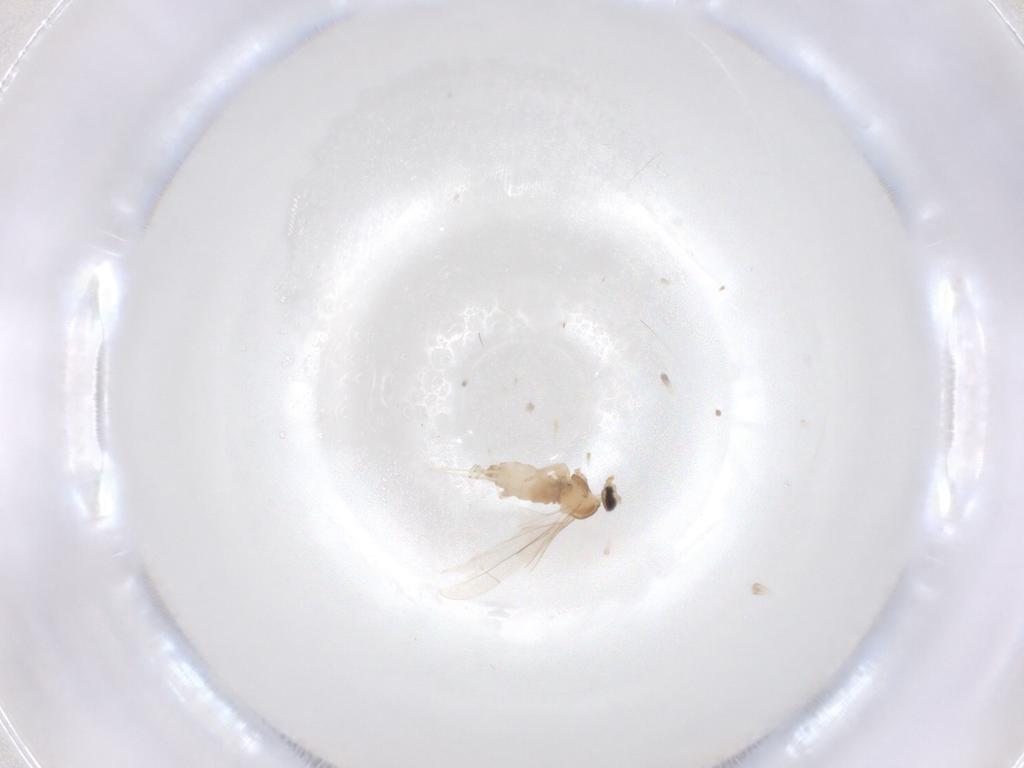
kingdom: Animalia
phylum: Arthropoda
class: Insecta
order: Diptera
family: Cecidomyiidae
